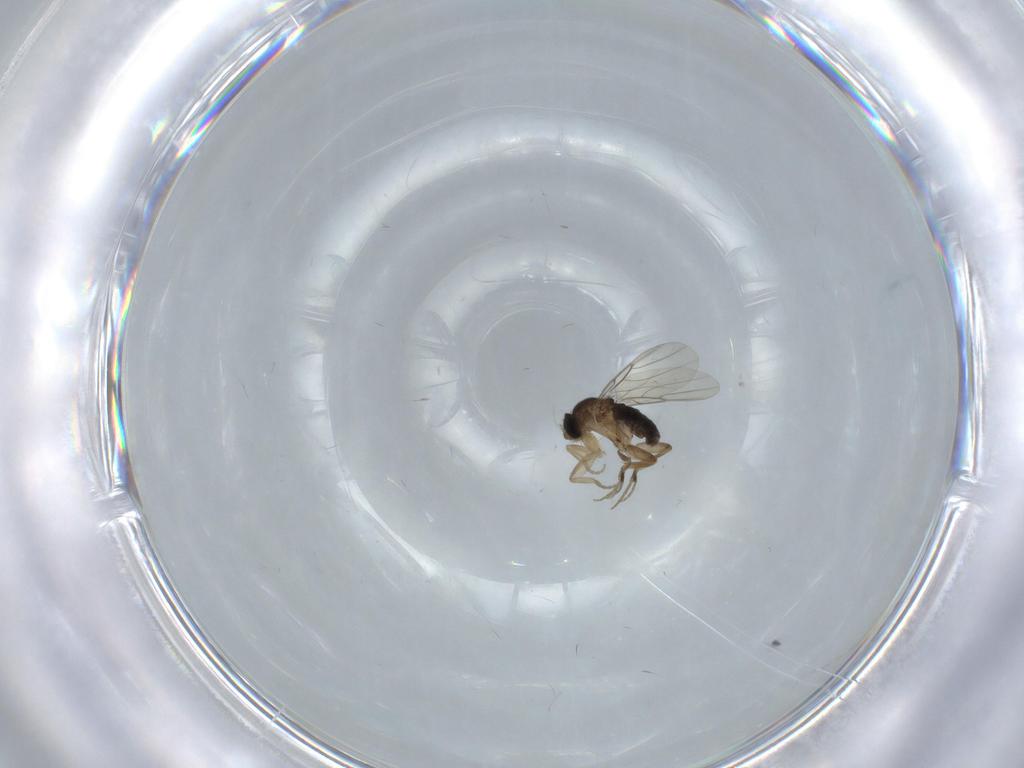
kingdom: Animalia
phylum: Arthropoda
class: Insecta
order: Diptera
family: Phoridae
